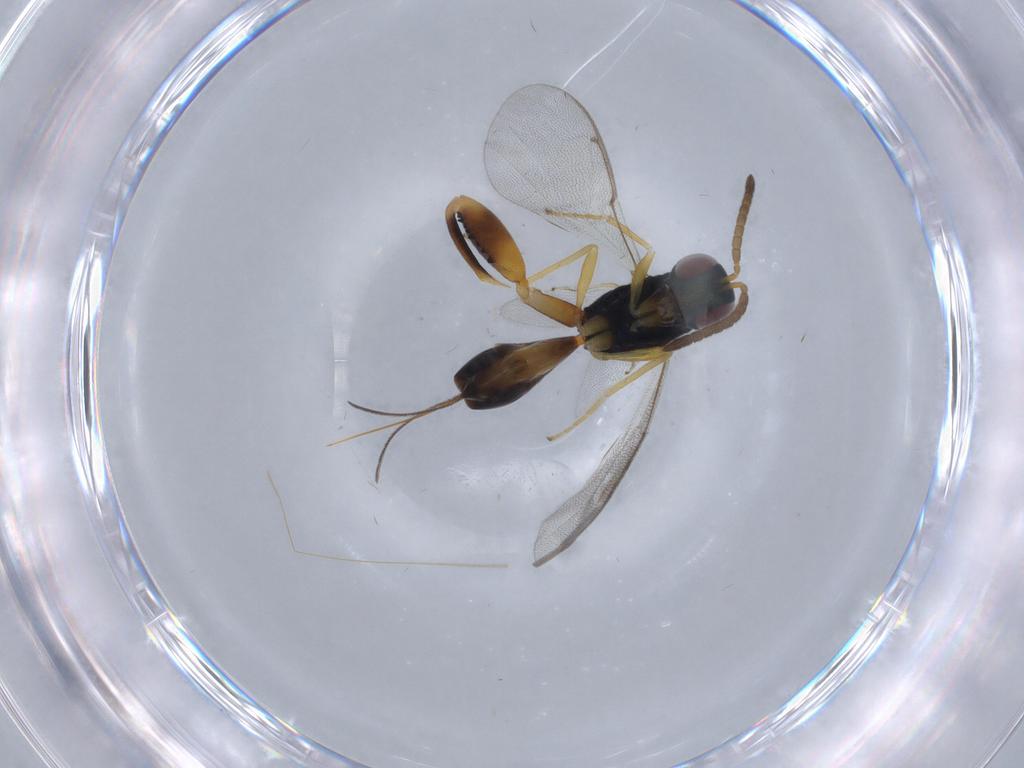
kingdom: Animalia
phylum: Arthropoda
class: Insecta
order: Hymenoptera
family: Torymidae
